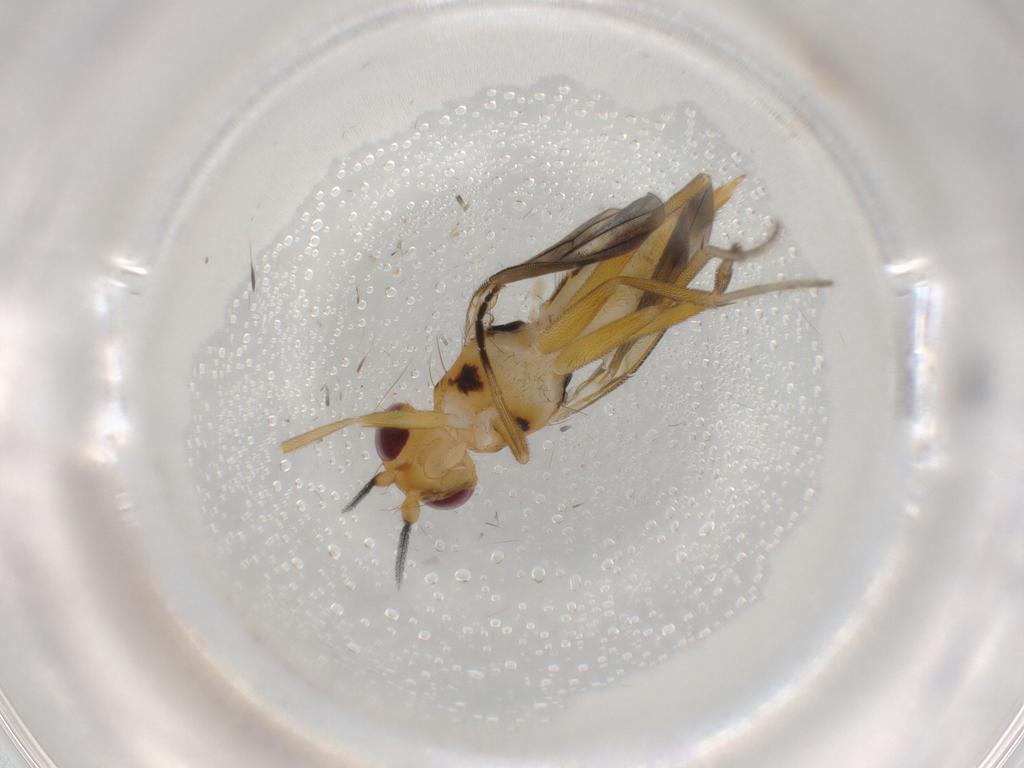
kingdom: Animalia
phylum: Arthropoda
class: Insecta
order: Diptera
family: Clusiidae
